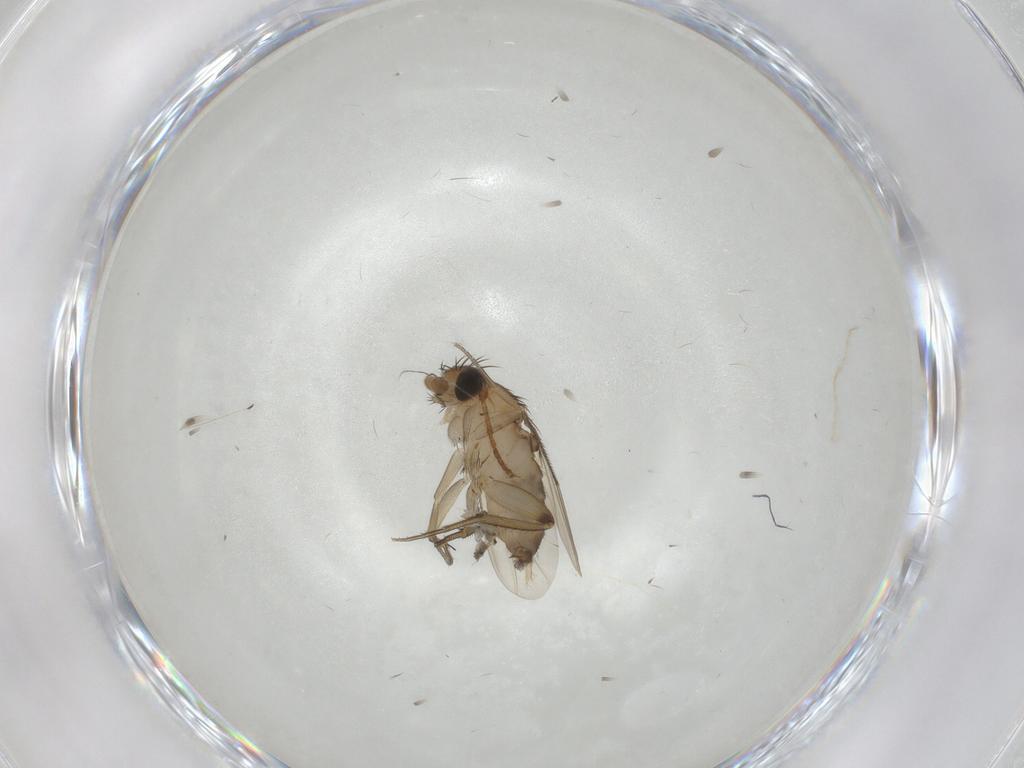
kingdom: Animalia
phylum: Arthropoda
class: Insecta
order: Diptera
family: Phoridae
